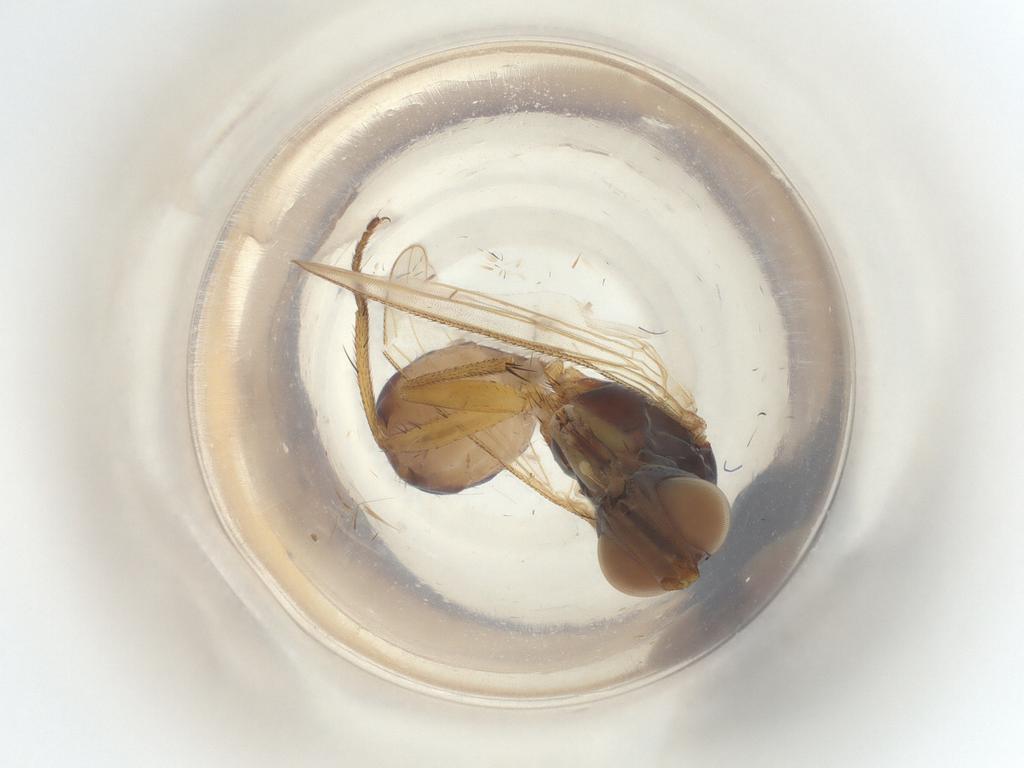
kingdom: Animalia
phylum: Arthropoda
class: Insecta
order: Diptera
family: Muscidae
